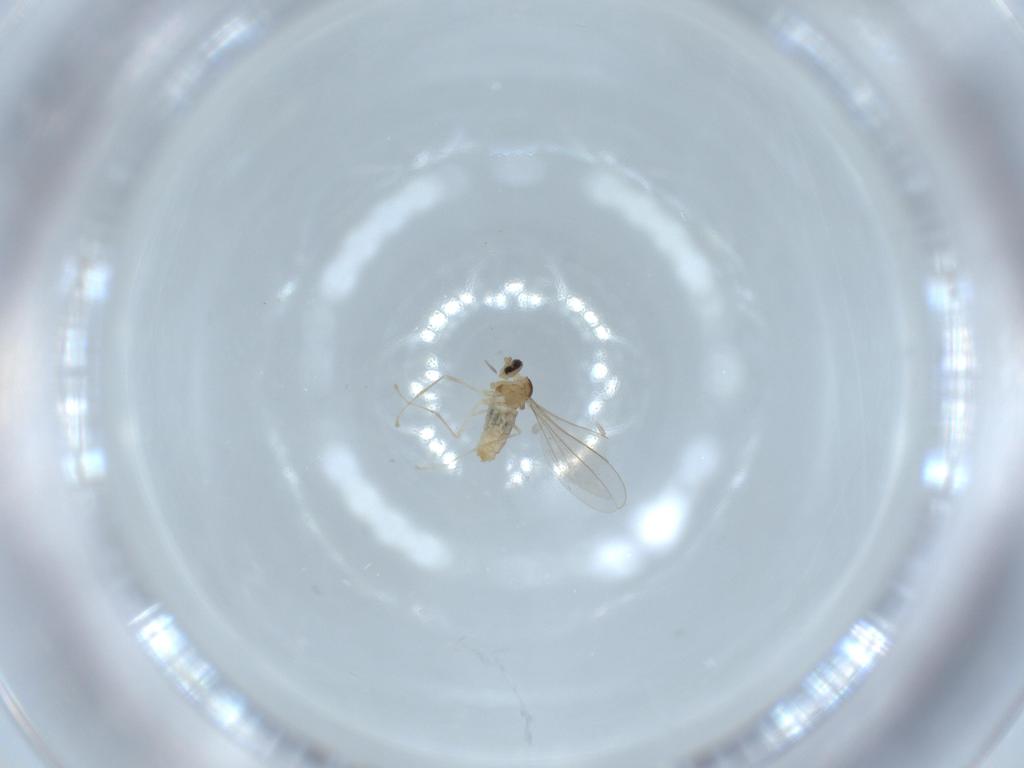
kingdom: Animalia
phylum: Arthropoda
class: Insecta
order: Diptera
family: Cecidomyiidae
